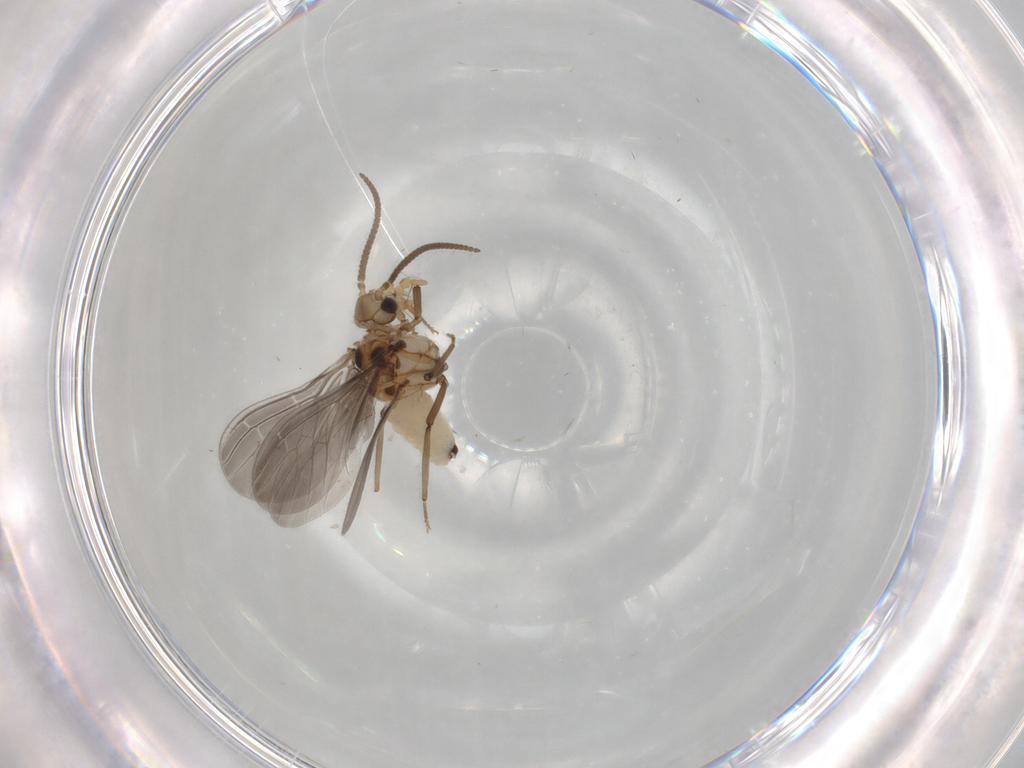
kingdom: Animalia
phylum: Arthropoda
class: Insecta
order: Neuroptera
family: Coniopterygidae
